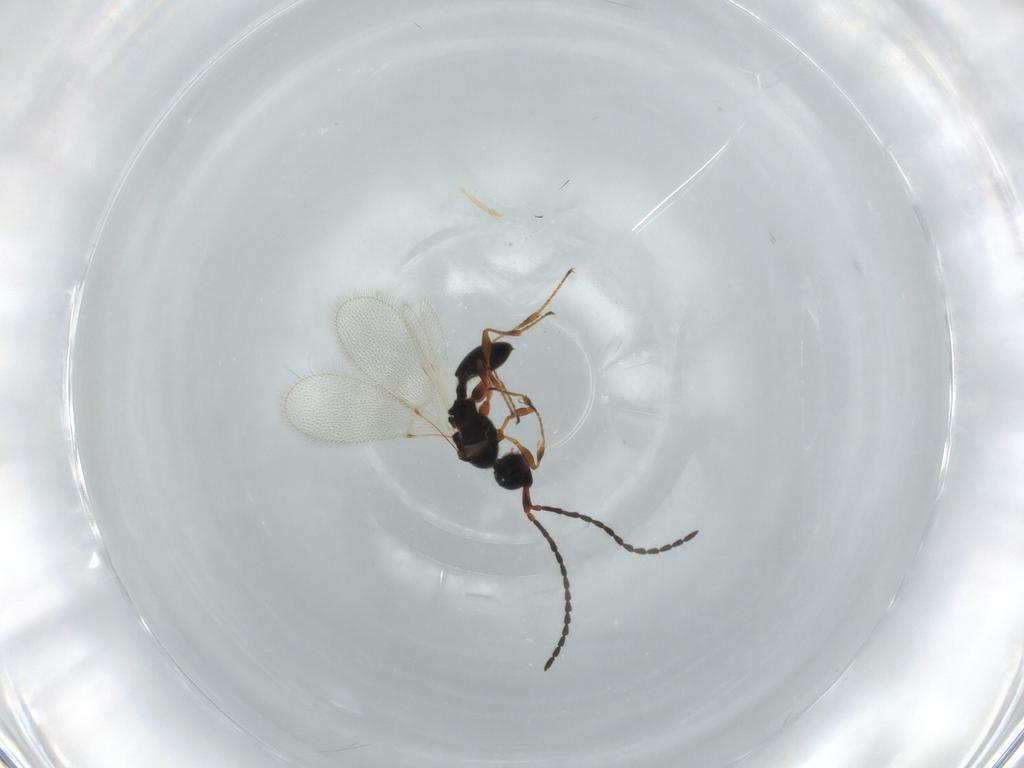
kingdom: Animalia
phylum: Arthropoda
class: Insecta
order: Hymenoptera
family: Diapriidae
